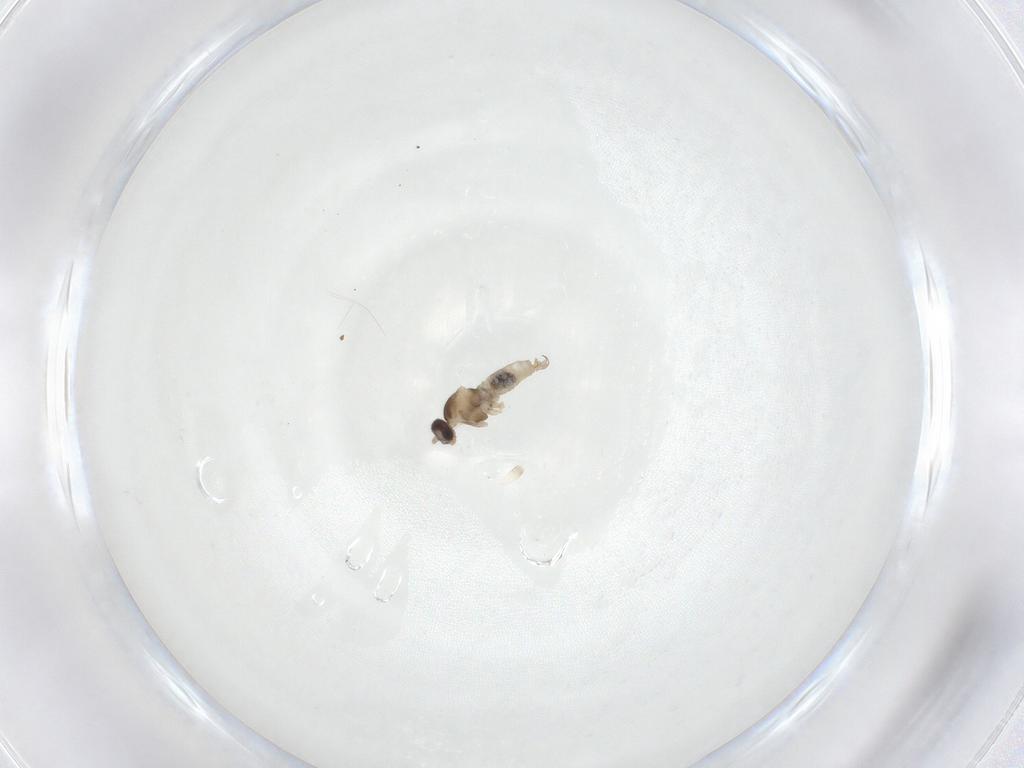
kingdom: Animalia
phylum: Arthropoda
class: Insecta
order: Diptera
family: Cecidomyiidae
